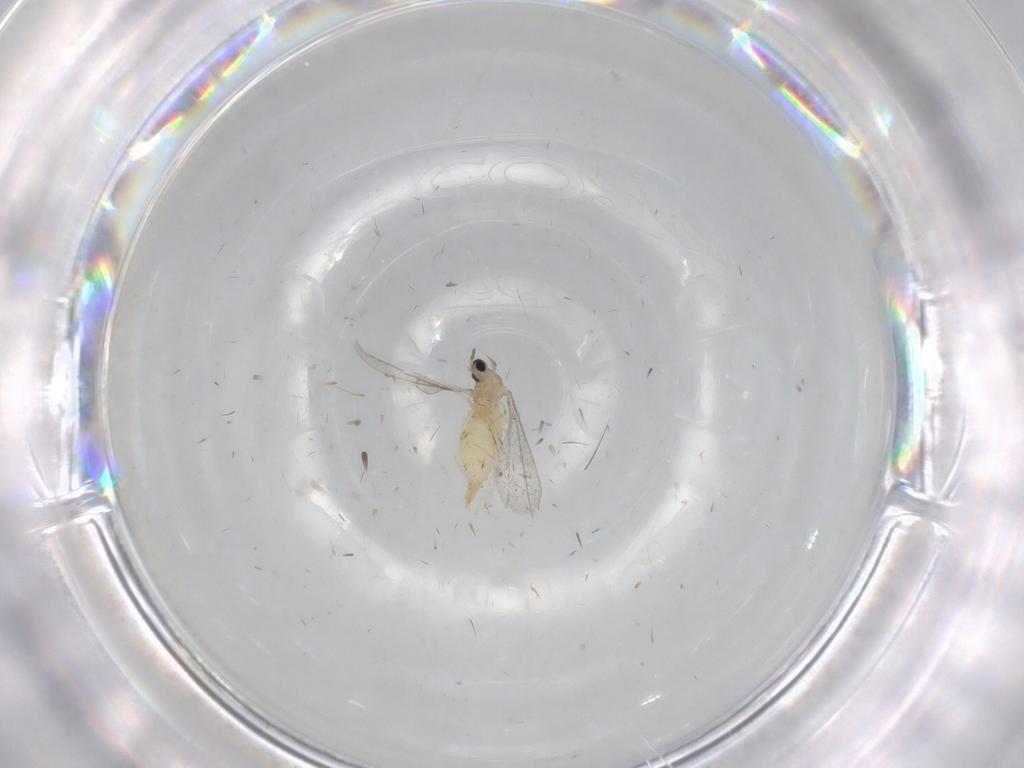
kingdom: Animalia
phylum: Arthropoda
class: Insecta
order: Diptera
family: Cecidomyiidae
